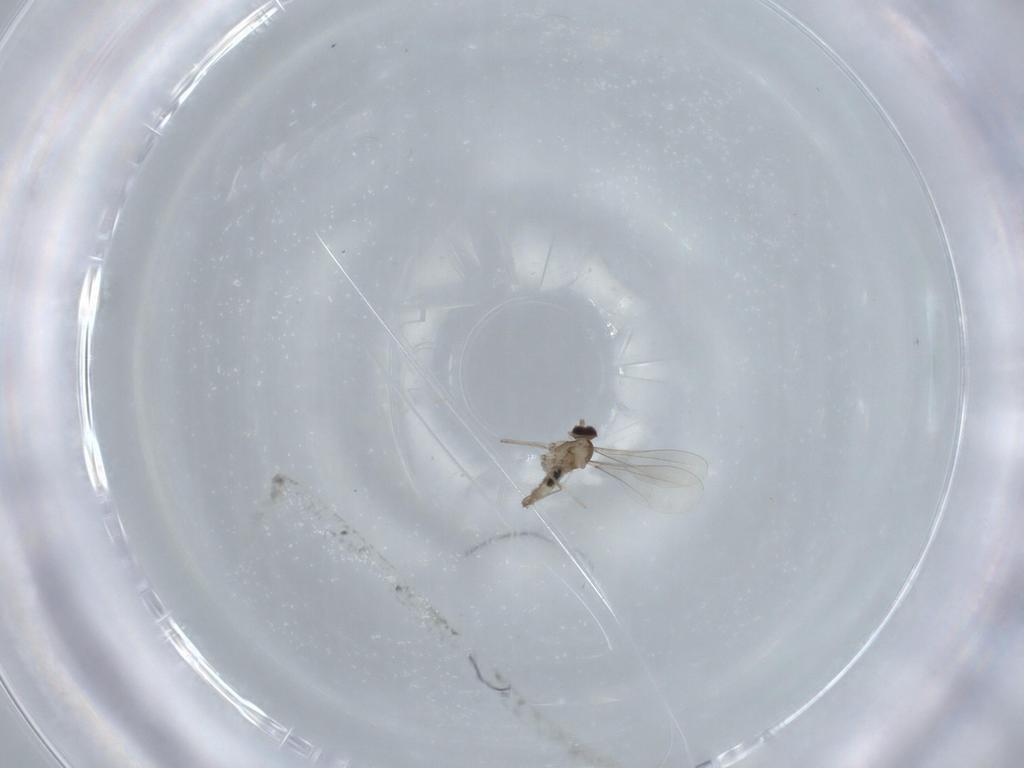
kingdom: Animalia
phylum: Arthropoda
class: Insecta
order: Diptera
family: Cecidomyiidae
